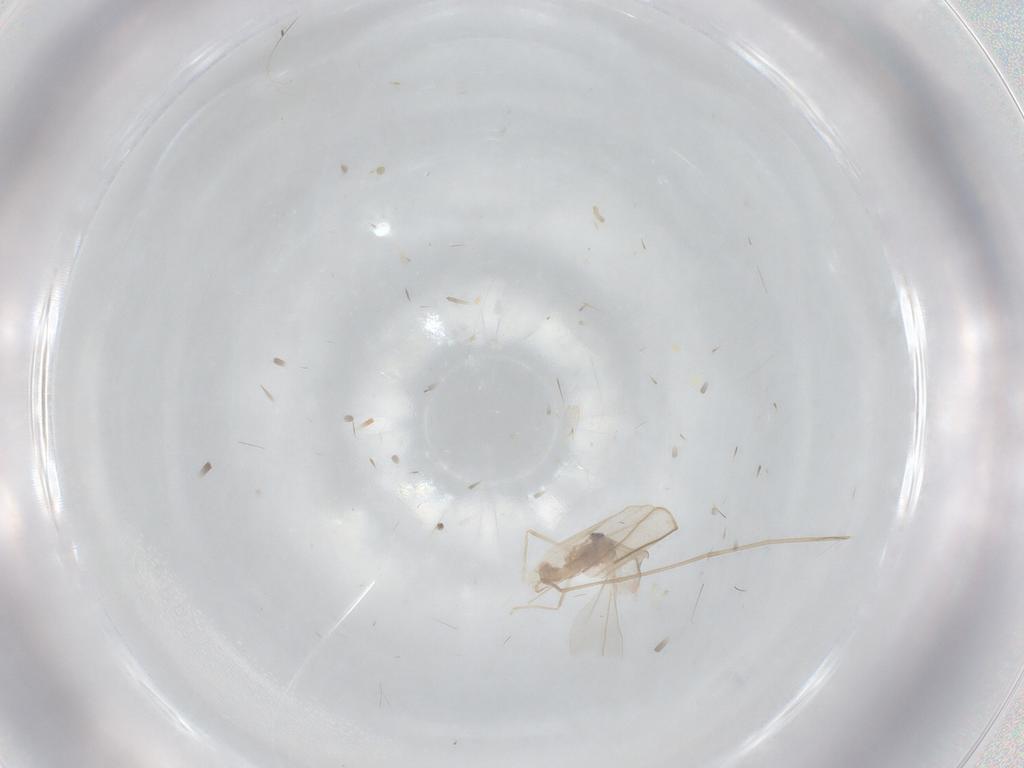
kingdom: Animalia
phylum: Arthropoda
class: Insecta
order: Diptera
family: Cecidomyiidae
